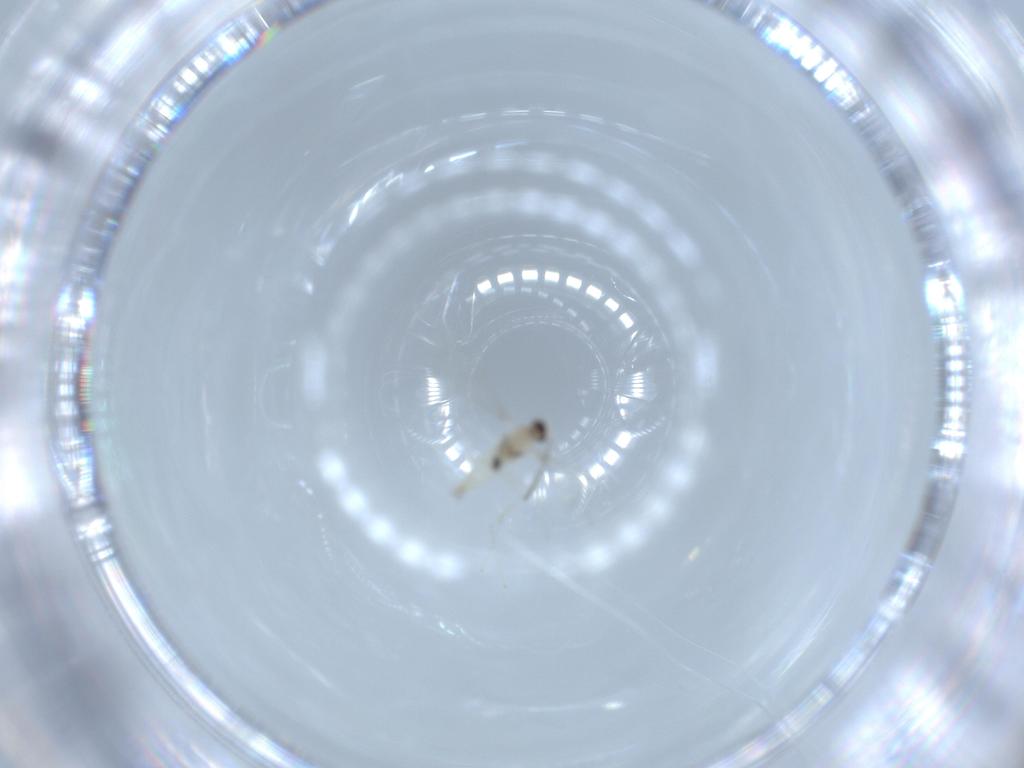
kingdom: Animalia
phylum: Arthropoda
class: Insecta
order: Diptera
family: Phoridae
